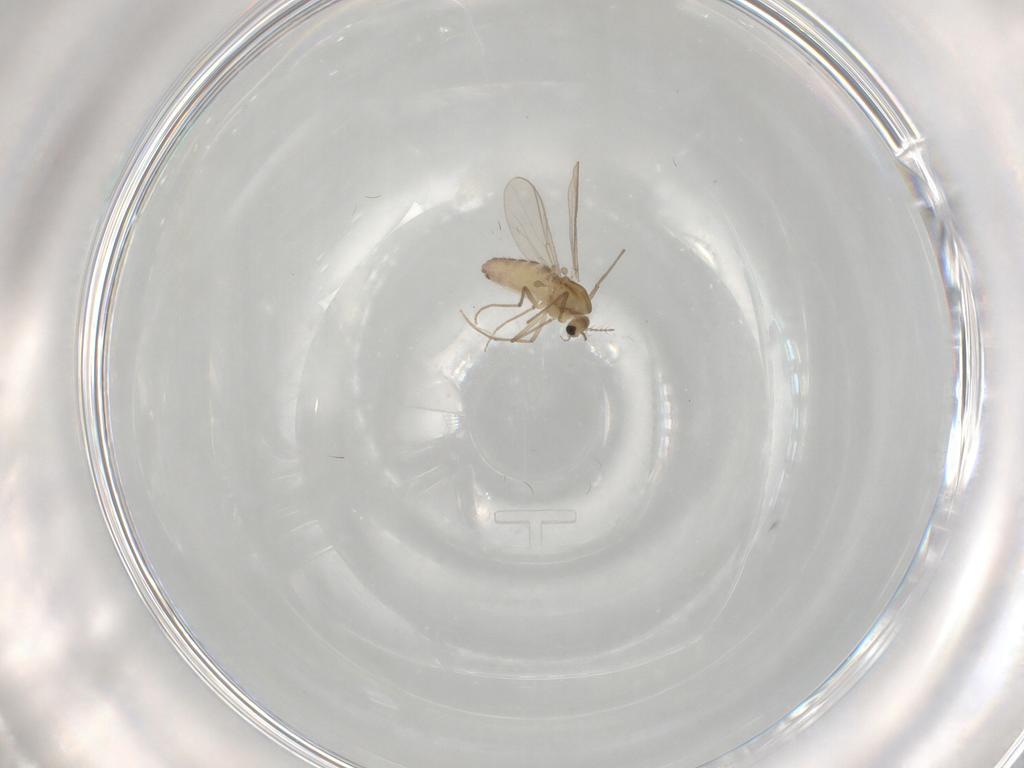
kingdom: Animalia
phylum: Arthropoda
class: Insecta
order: Diptera
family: Chironomidae
